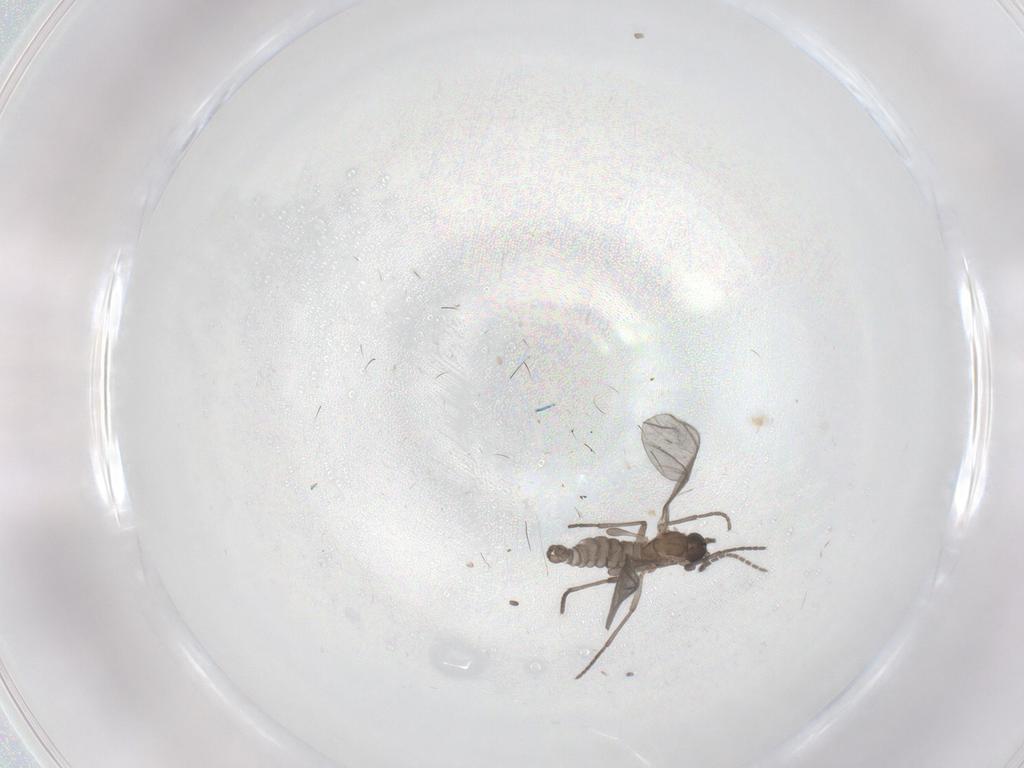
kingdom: Animalia
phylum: Arthropoda
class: Insecta
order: Diptera
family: Sciaridae
